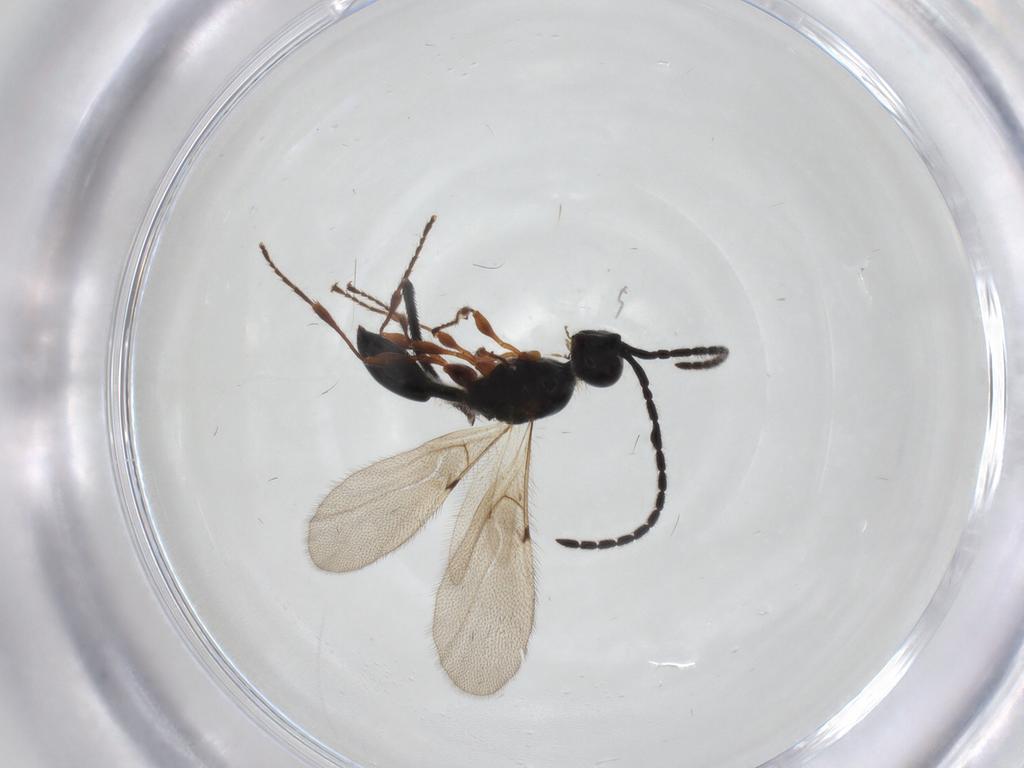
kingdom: Animalia
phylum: Arthropoda
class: Insecta
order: Hymenoptera
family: Diapriidae
